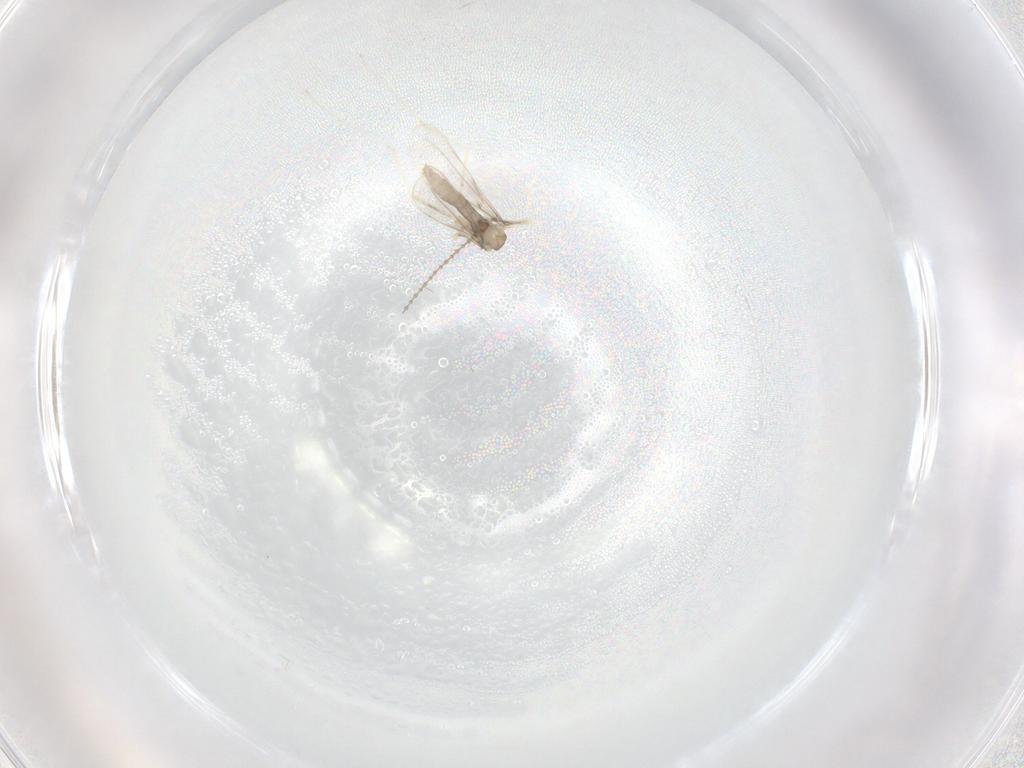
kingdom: Animalia
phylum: Arthropoda
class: Insecta
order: Diptera
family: Cecidomyiidae
